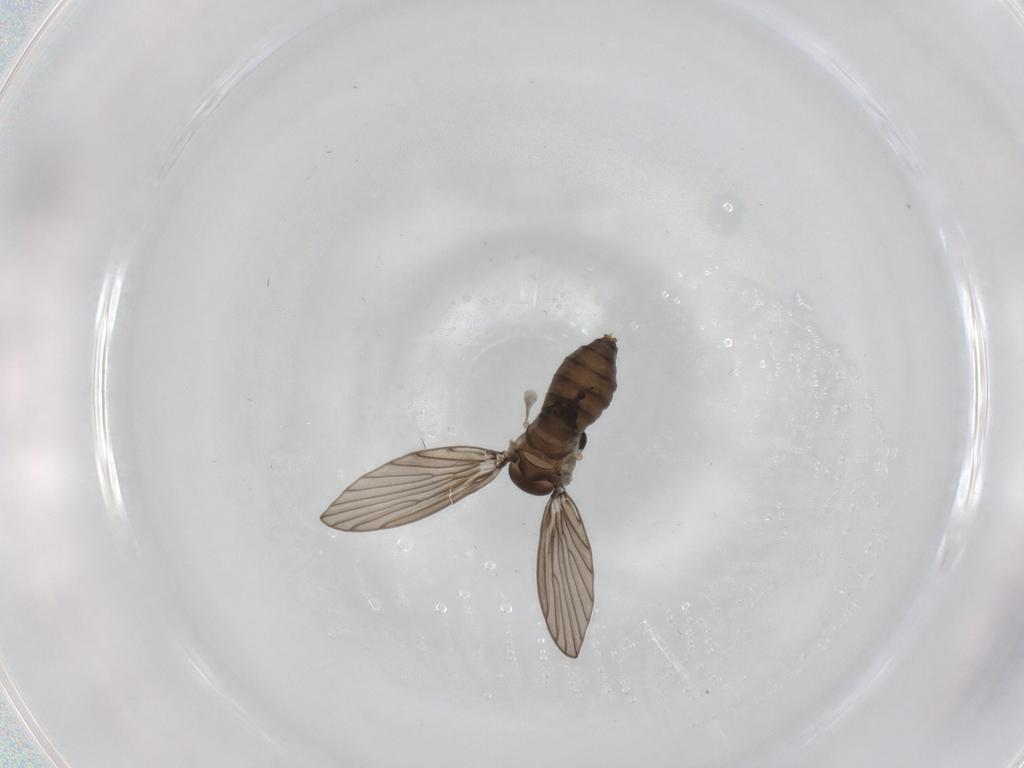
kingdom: Animalia
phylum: Arthropoda
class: Insecta
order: Diptera
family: Psychodidae
